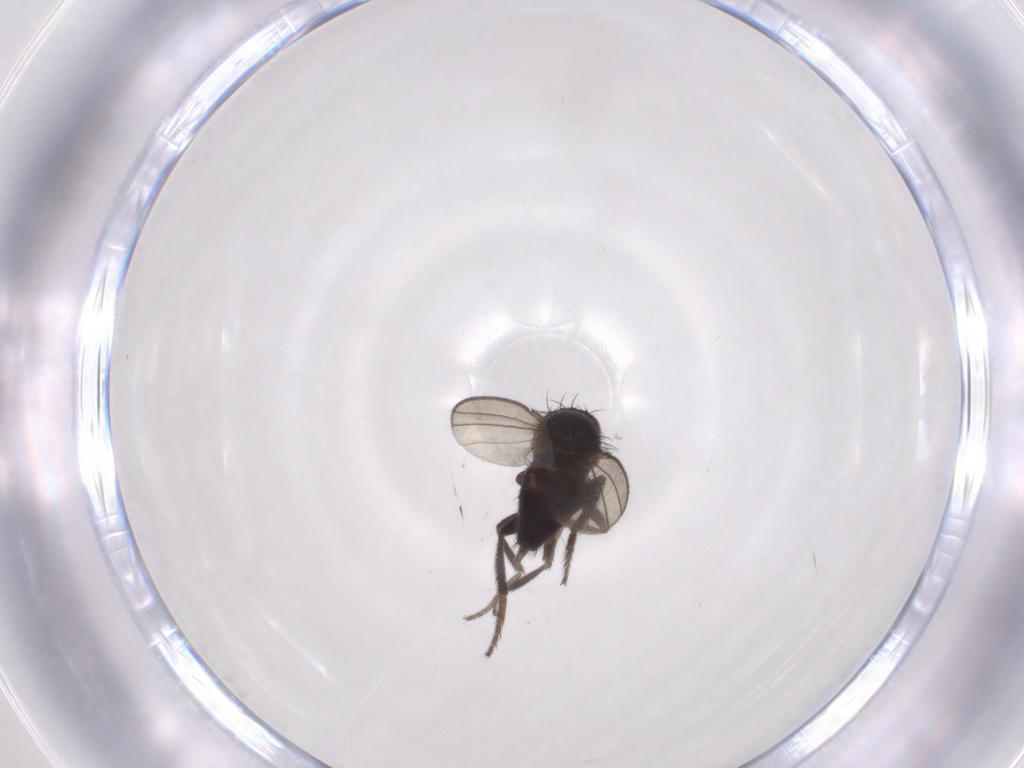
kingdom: Animalia
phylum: Arthropoda
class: Insecta
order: Diptera
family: Milichiidae
